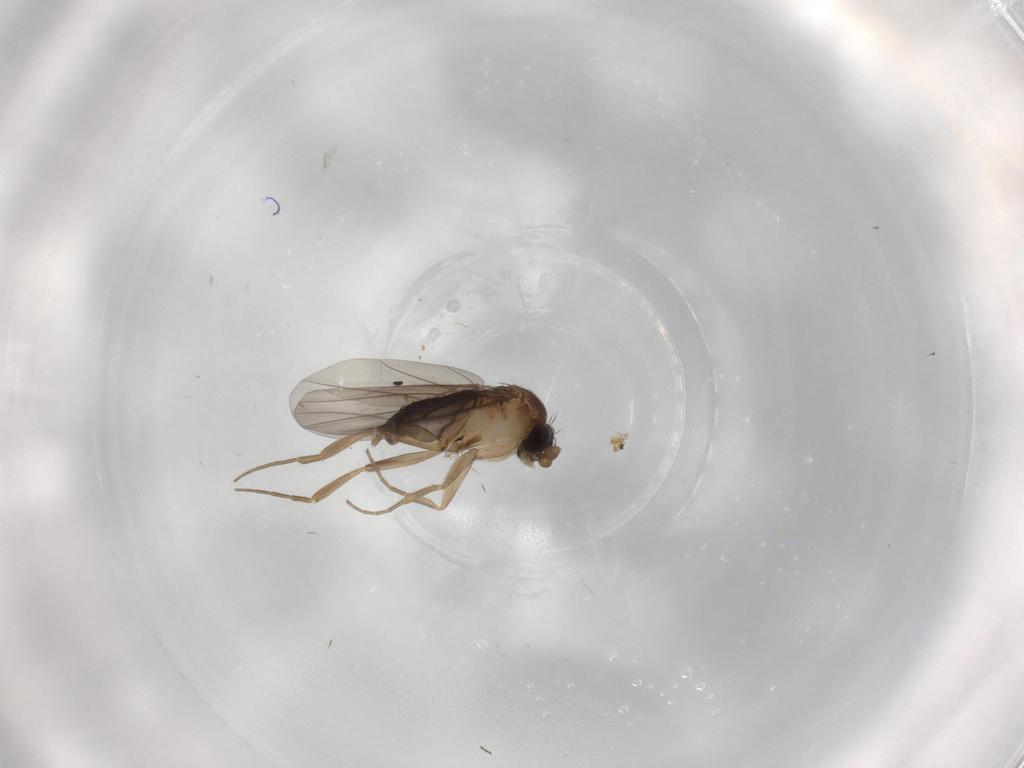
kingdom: Animalia
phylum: Arthropoda
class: Insecta
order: Diptera
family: Phoridae
